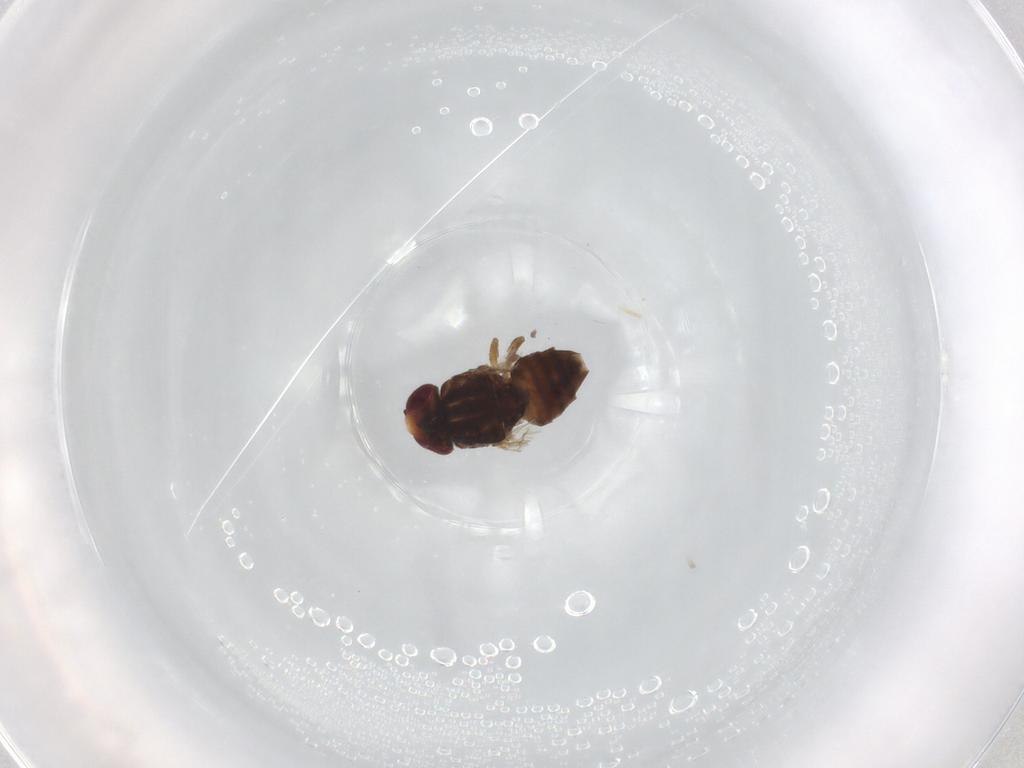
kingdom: Animalia
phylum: Arthropoda
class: Insecta
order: Diptera
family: Chloropidae
